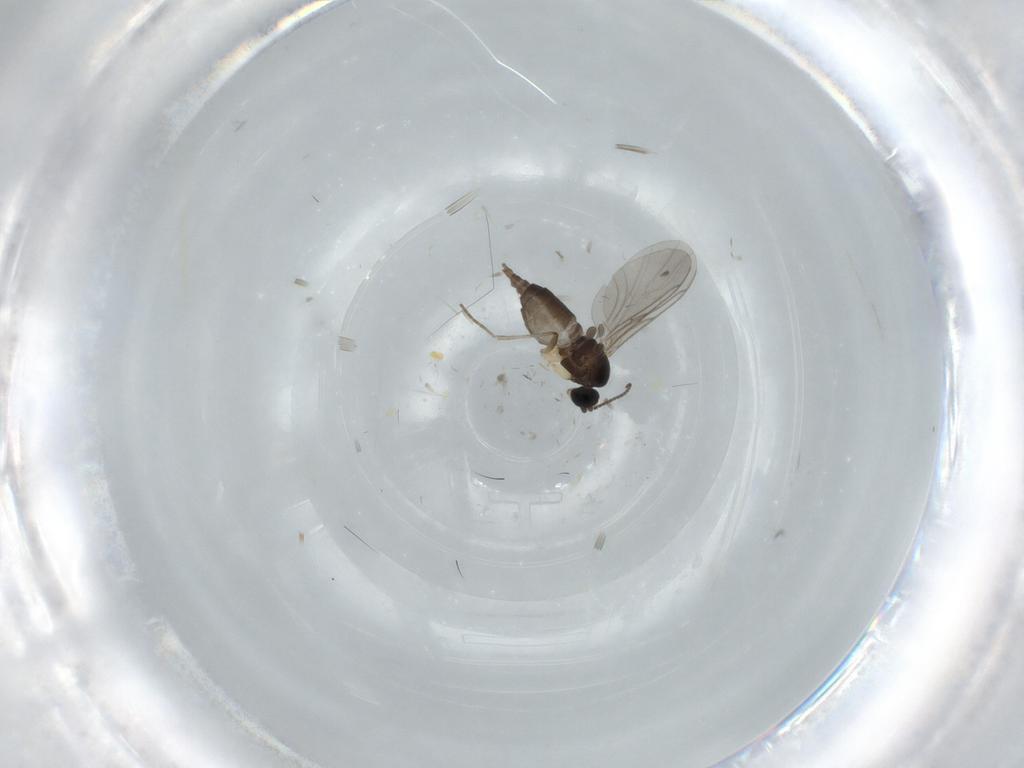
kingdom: Animalia
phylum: Arthropoda
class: Insecta
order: Diptera
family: Sciaridae
